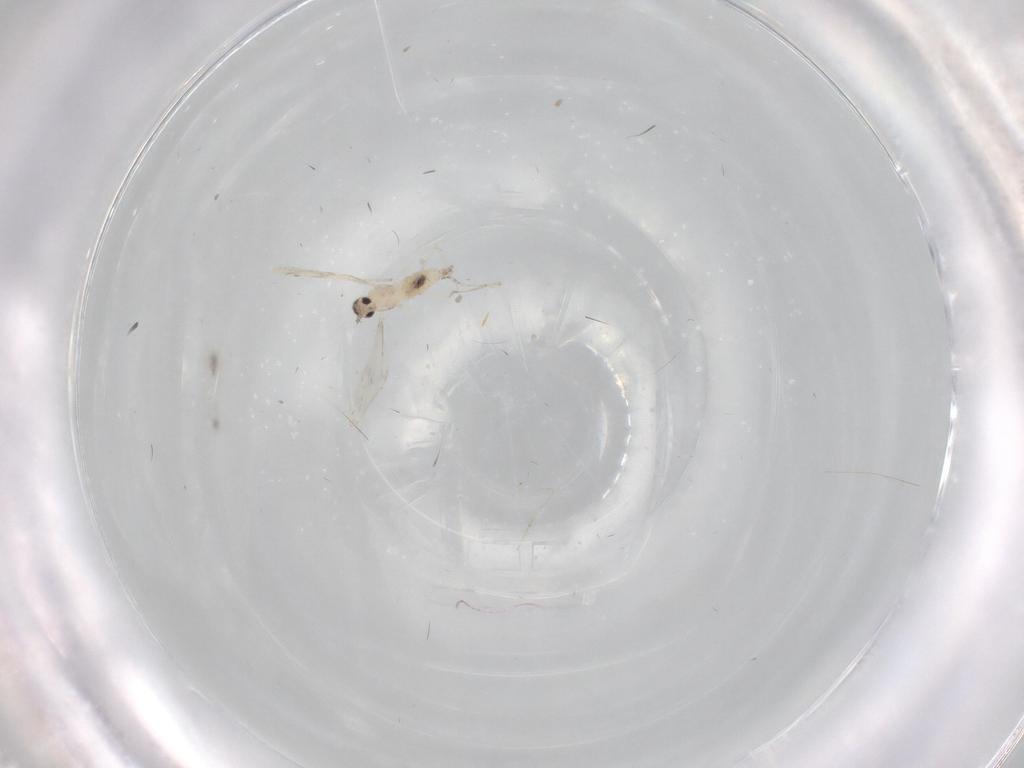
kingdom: Animalia
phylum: Arthropoda
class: Insecta
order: Diptera
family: Cecidomyiidae
